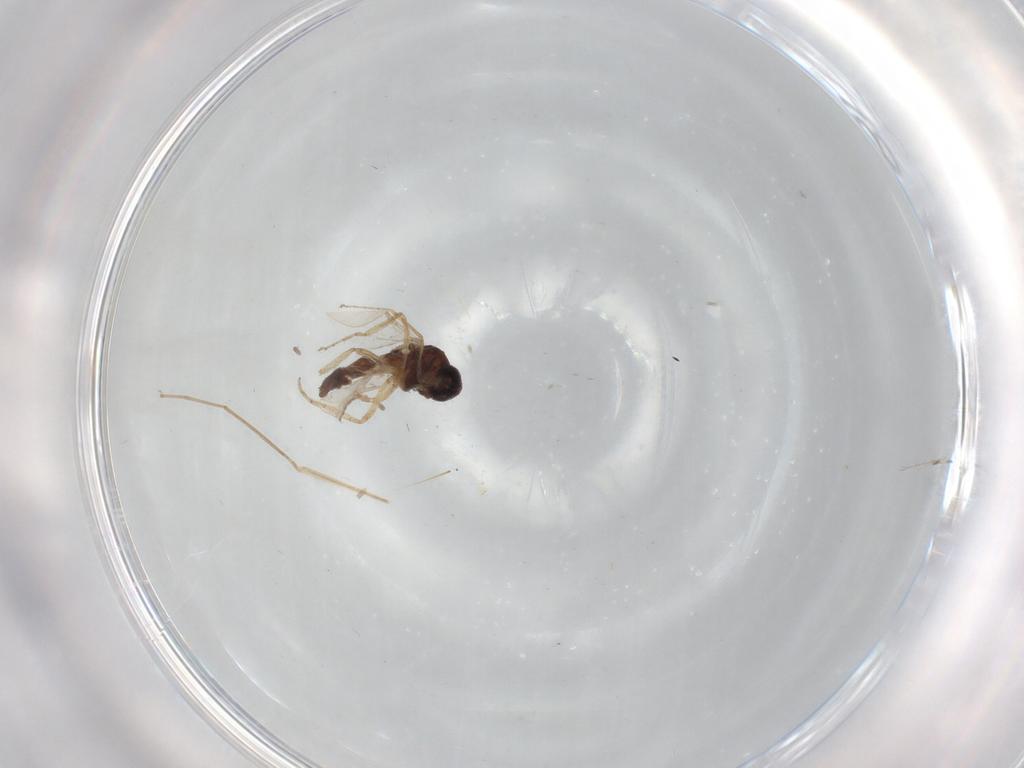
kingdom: Animalia
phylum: Arthropoda
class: Insecta
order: Diptera
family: Ceratopogonidae
